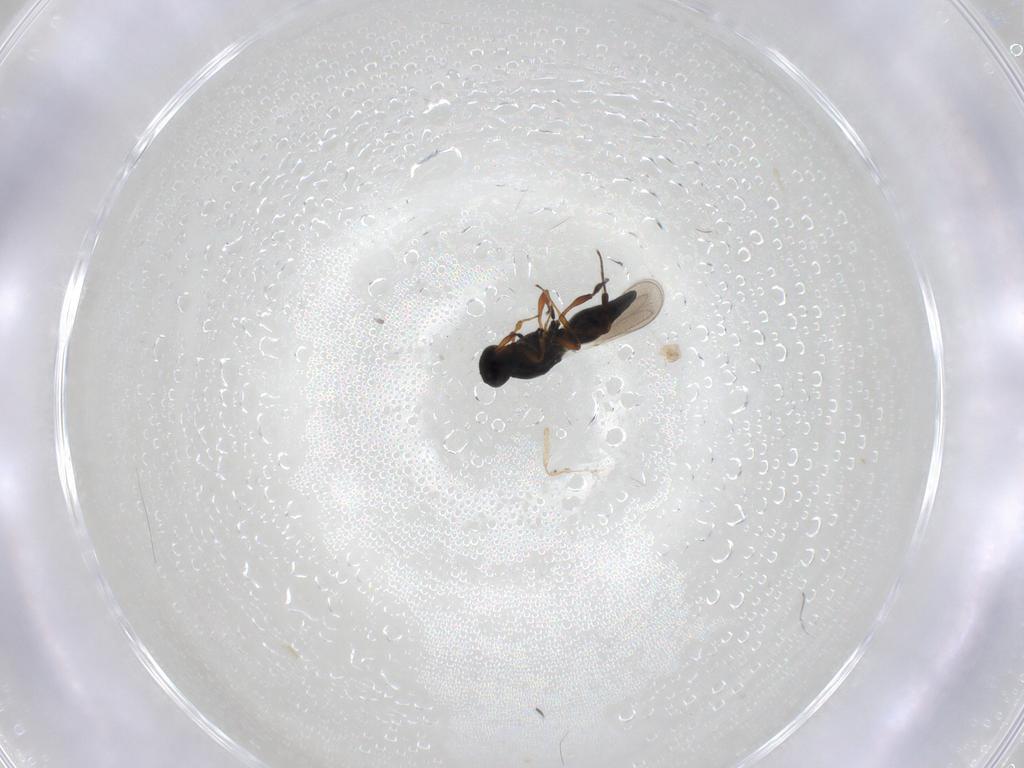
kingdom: Animalia
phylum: Arthropoda
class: Insecta
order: Hymenoptera
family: Platygastridae
